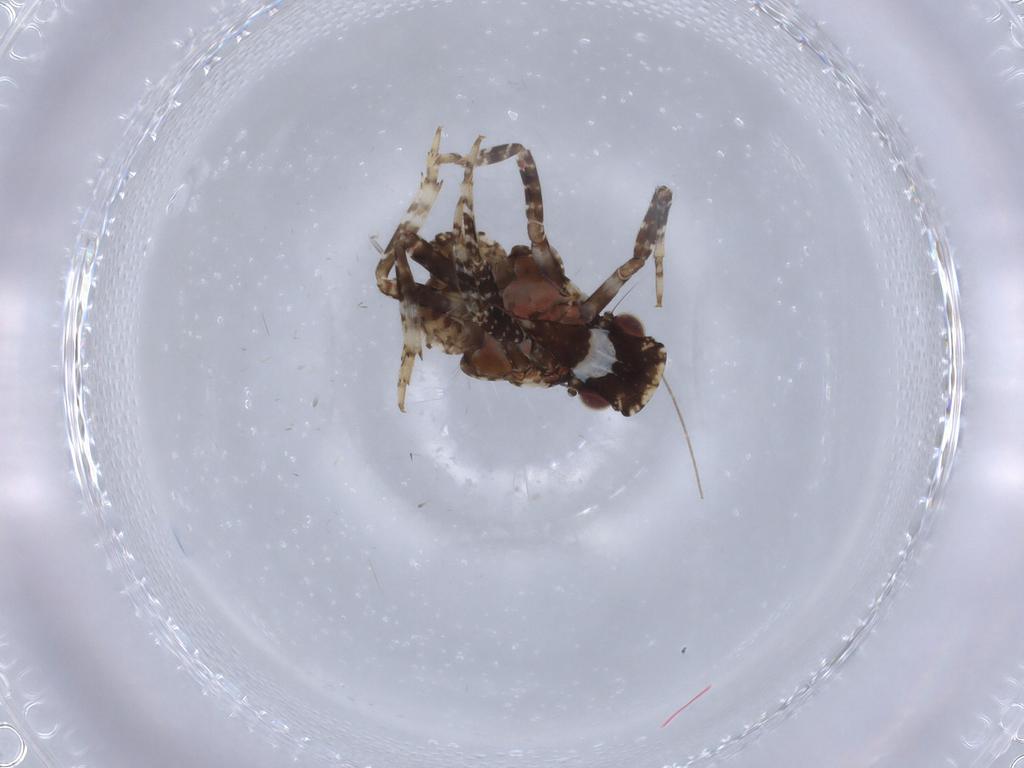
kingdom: Animalia
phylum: Arthropoda
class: Insecta
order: Hemiptera
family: Fulgoridae
